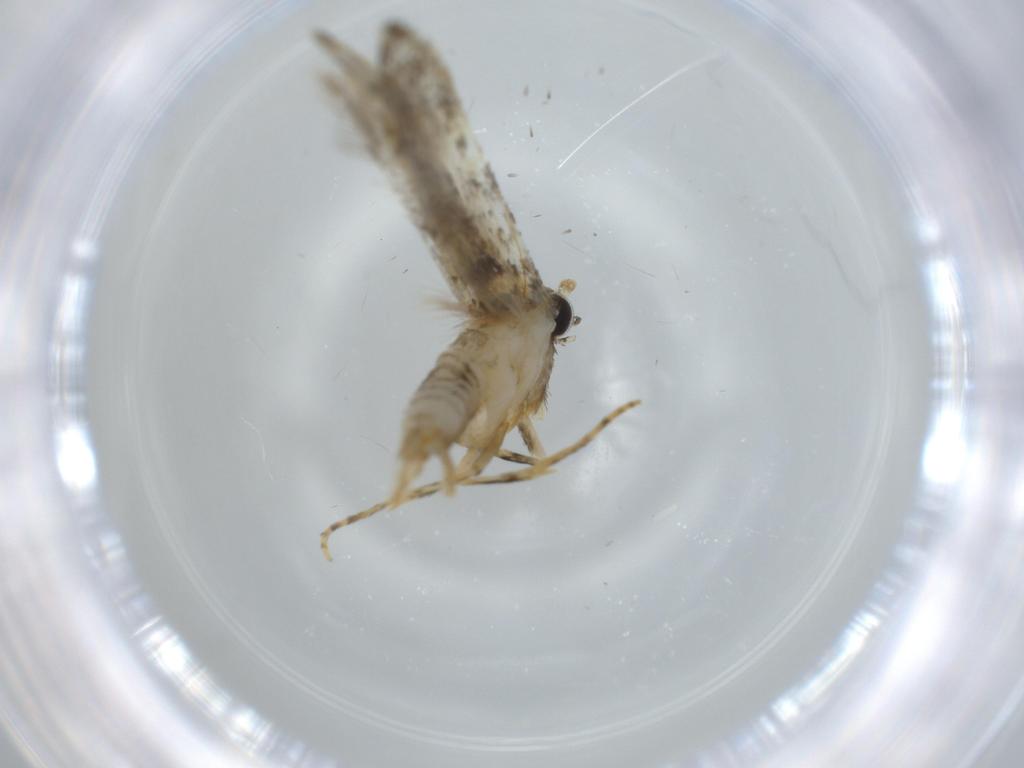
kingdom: Animalia
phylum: Arthropoda
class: Insecta
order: Lepidoptera
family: Tineidae
